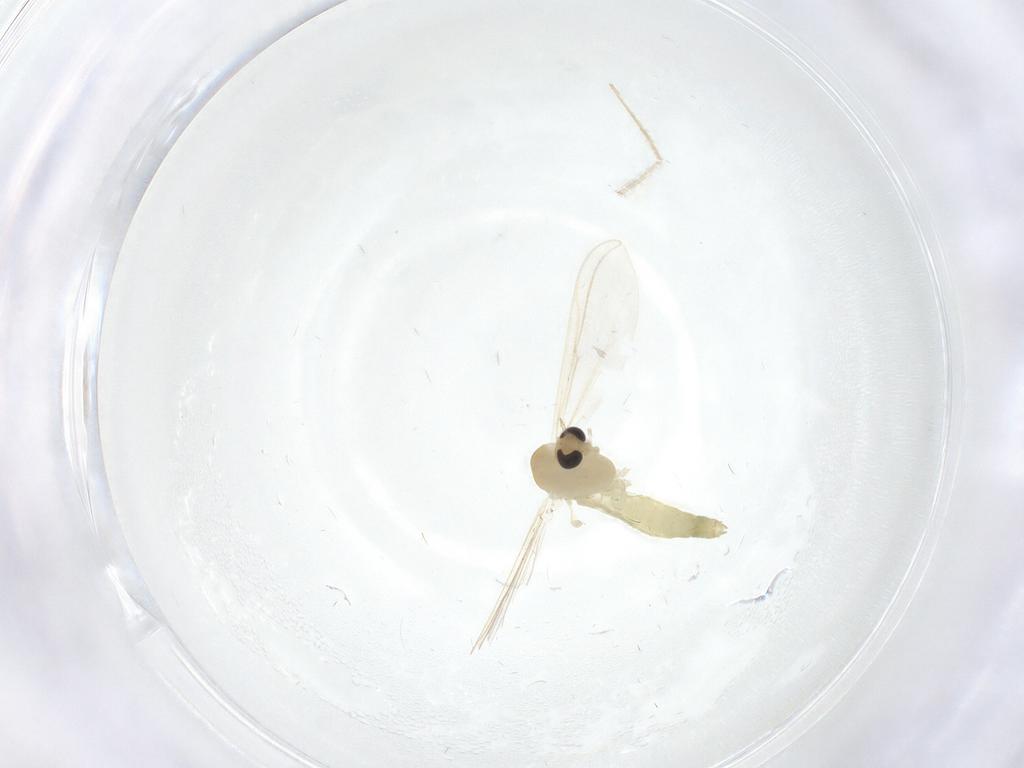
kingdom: Animalia
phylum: Arthropoda
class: Insecta
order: Diptera
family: Chironomidae
